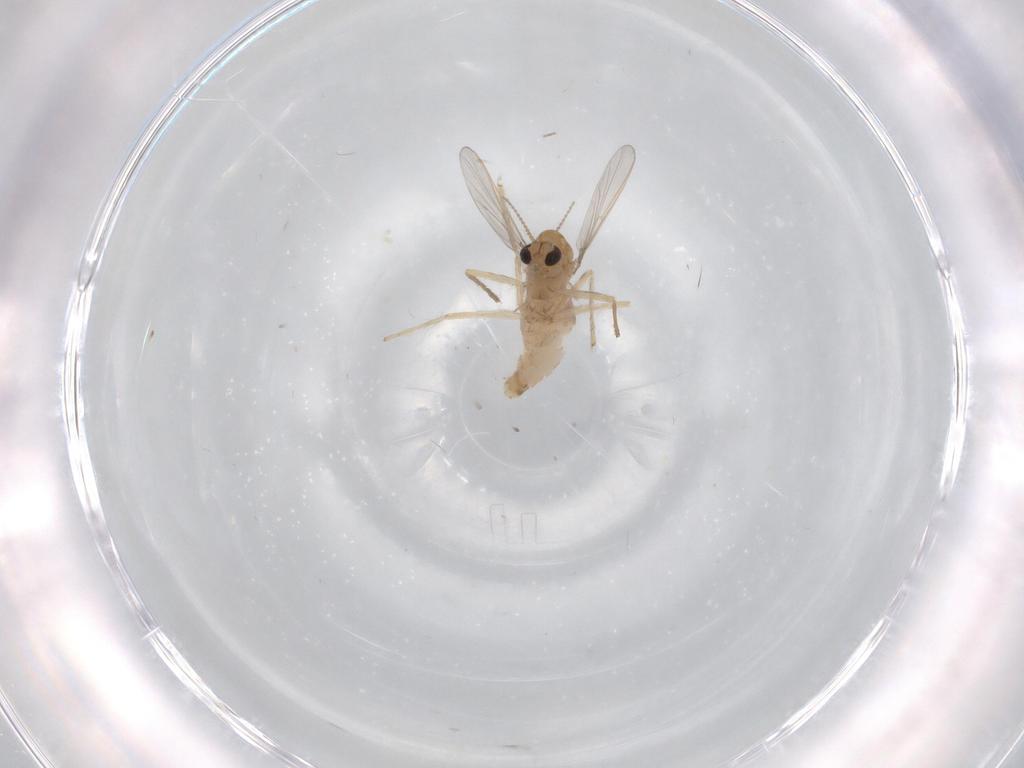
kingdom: Animalia
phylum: Arthropoda
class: Insecta
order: Diptera
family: Chironomidae
